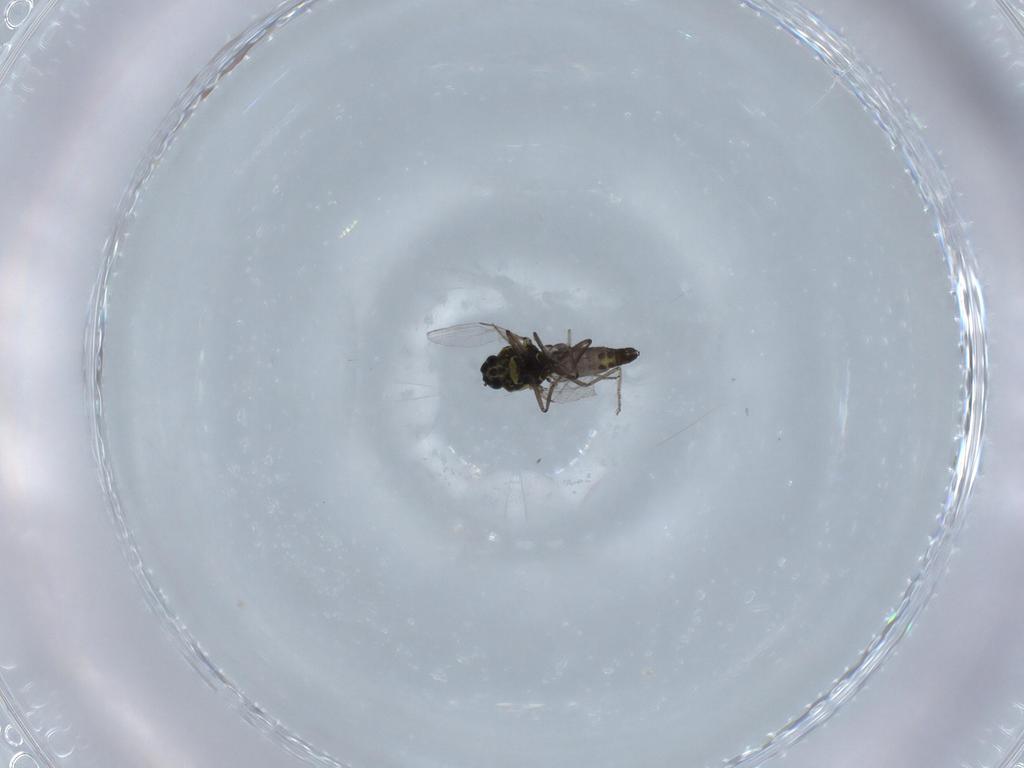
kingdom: Animalia
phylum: Arthropoda
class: Insecta
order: Diptera
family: Ceratopogonidae
